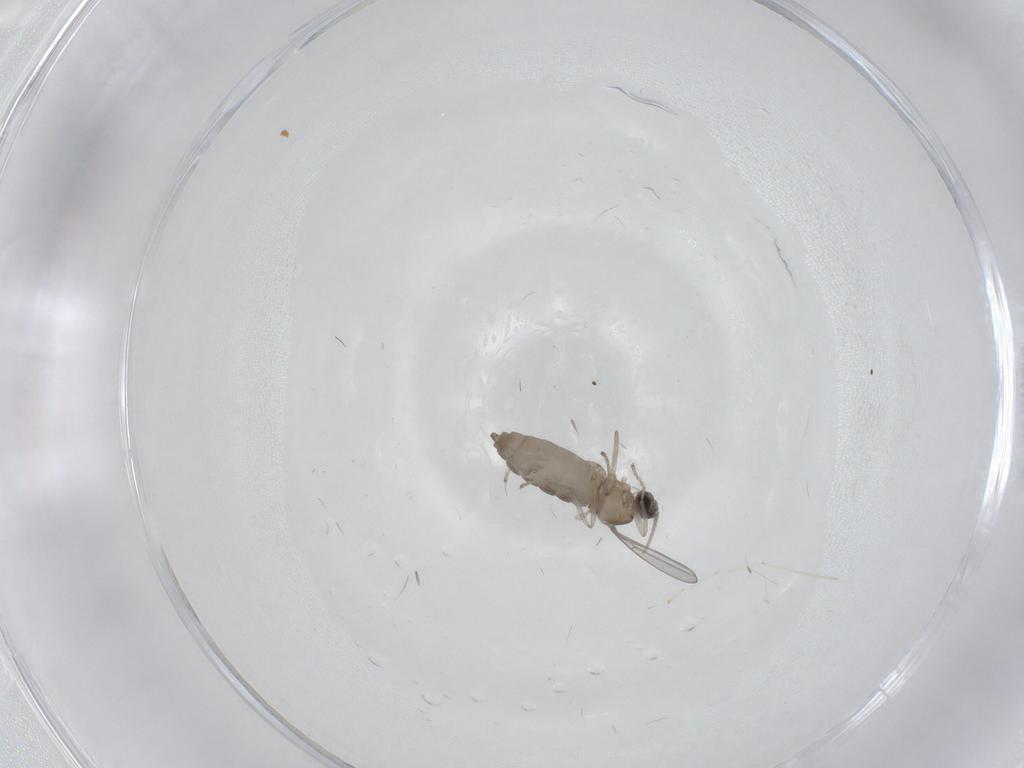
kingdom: Animalia
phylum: Arthropoda
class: Insecta
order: Diptera
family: Cecidomyiidae
